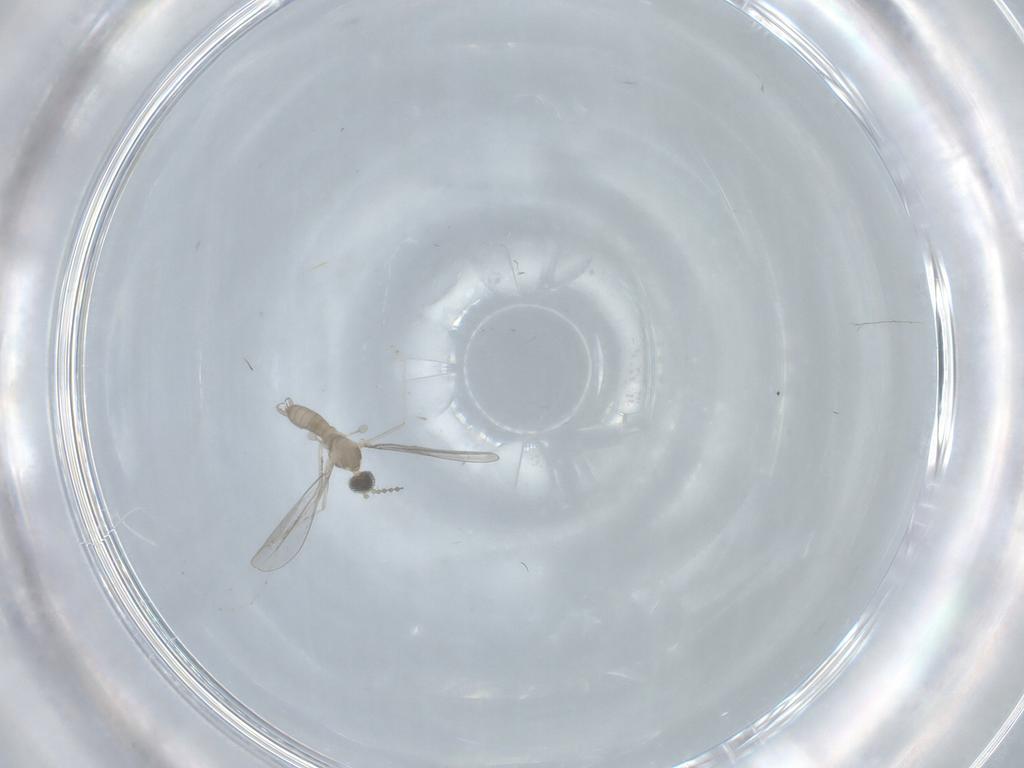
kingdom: Animalia
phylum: Arthropoda
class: Insecta
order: Diptera
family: Cecidomyiidae
